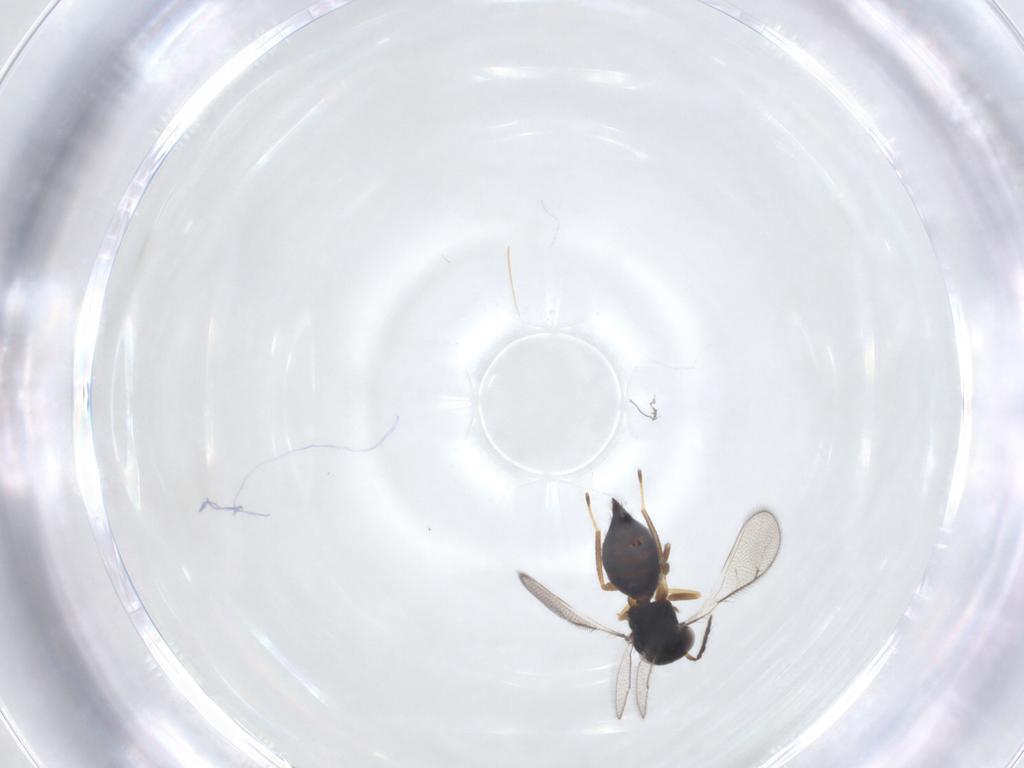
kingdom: Animalia
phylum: Arthropoda
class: Insecta
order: Hymenoptera
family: Eulophidae
